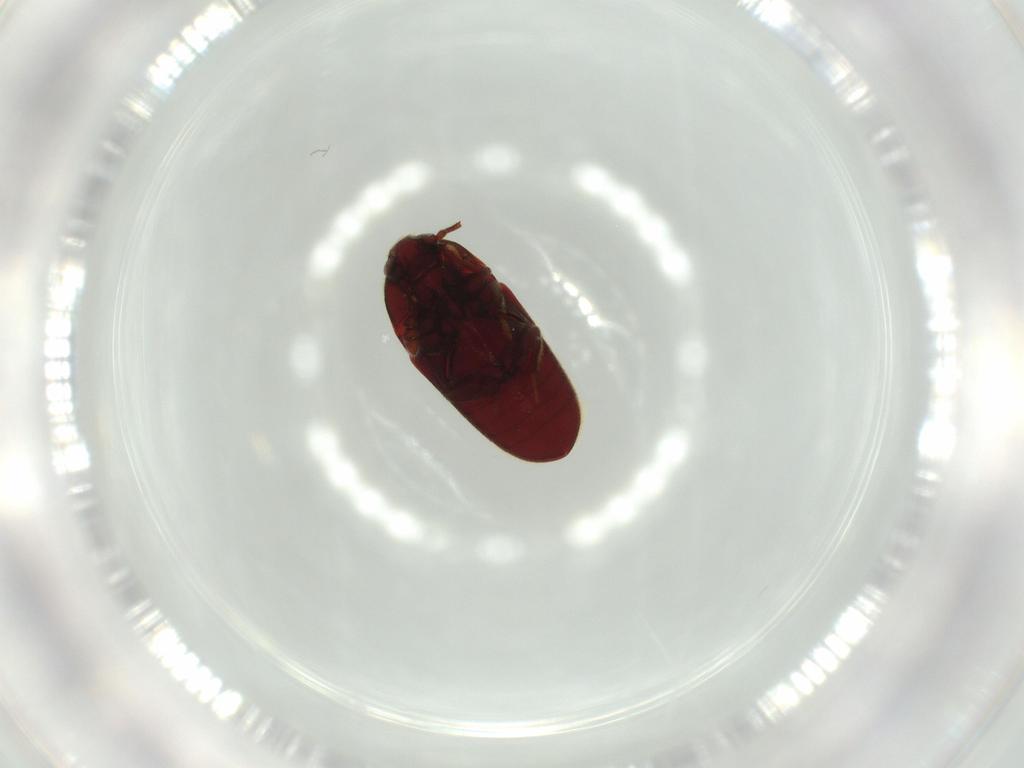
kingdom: Animalia
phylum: Arthropoda
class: Insecta
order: Coleoptera
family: Throscidae
